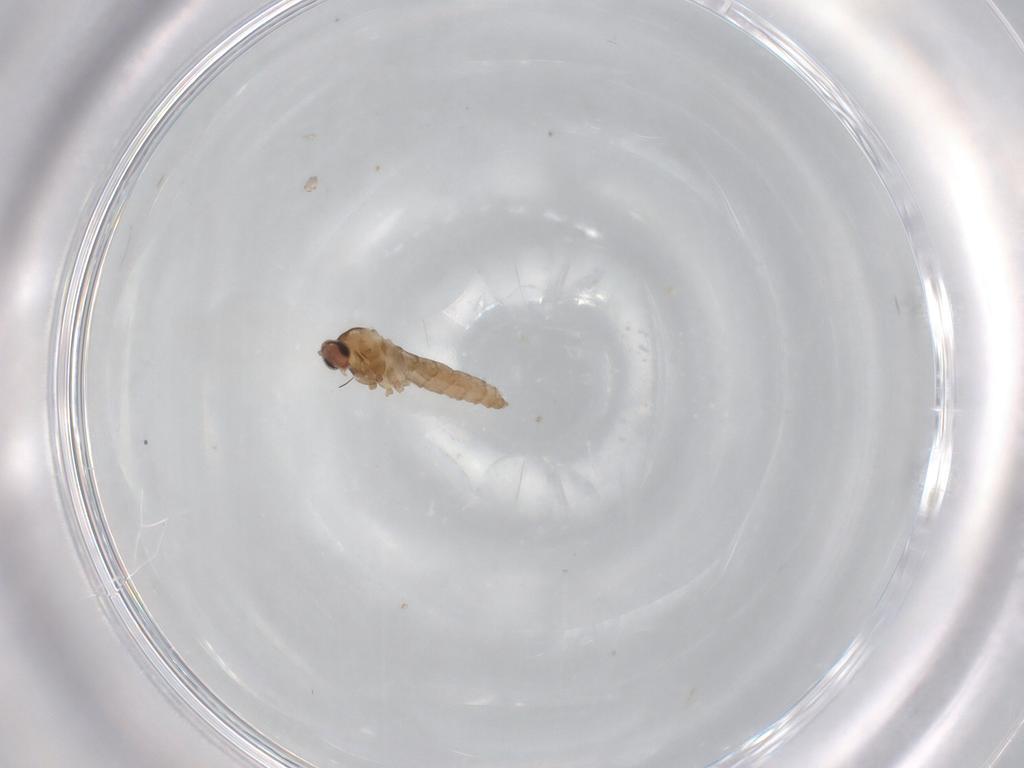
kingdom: Animalia
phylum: Arthropoda
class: Insecta
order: Diptera
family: Cecidomyiidae
